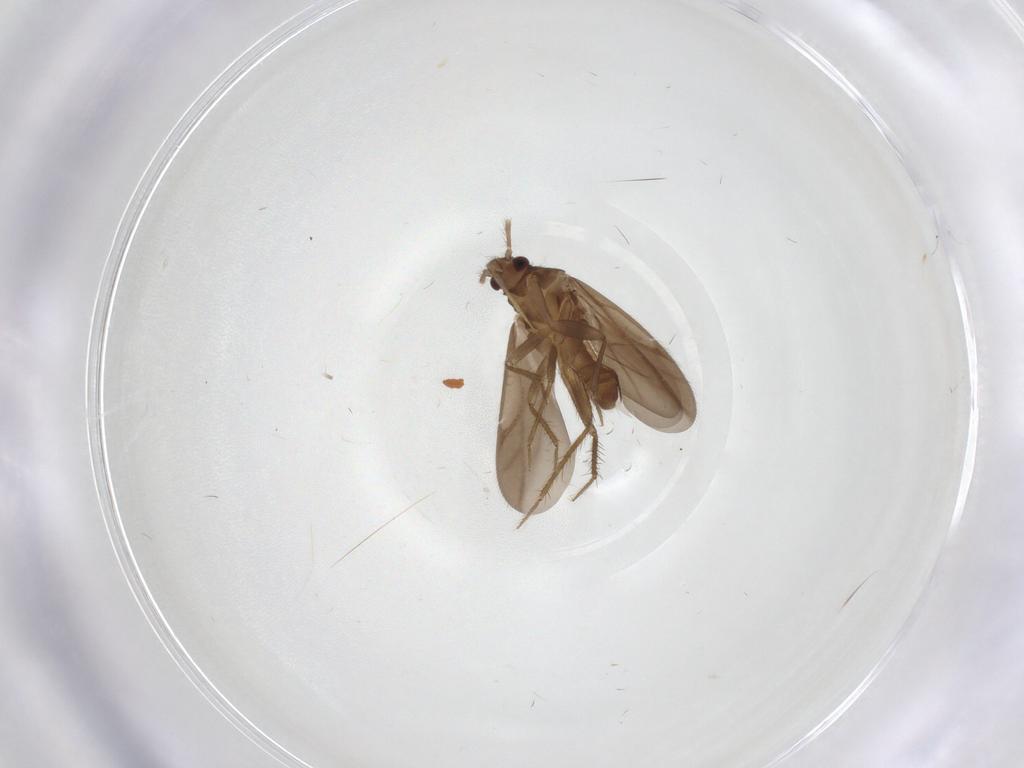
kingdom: Animalia
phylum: Arthropoda
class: Insecta
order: Hemiptera
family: Ceratocombidae
